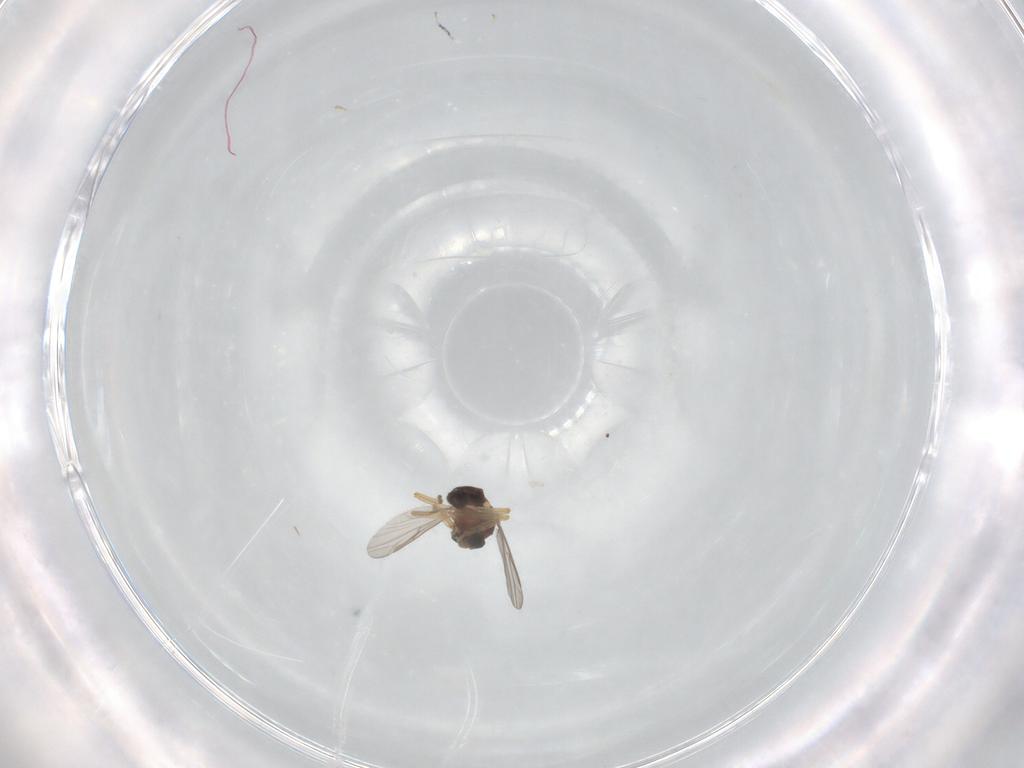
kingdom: Animalia
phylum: Arthropoda
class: Insecta
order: Diptera
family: Ceratopogonidae
